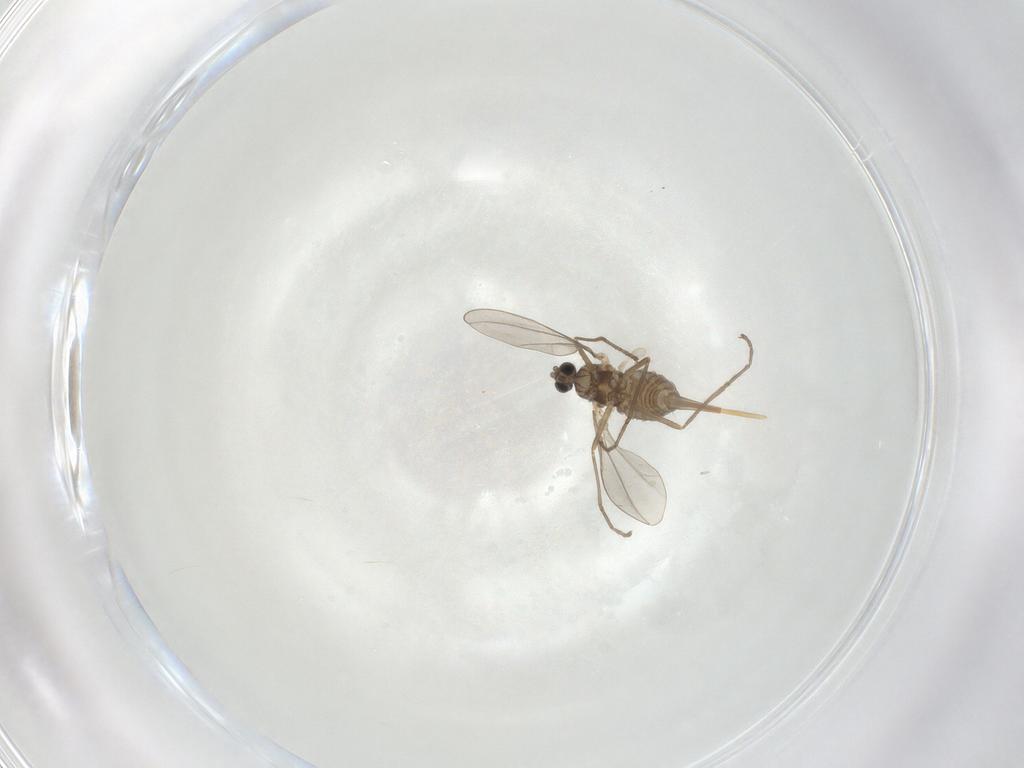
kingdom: Animalia
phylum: Arthropoda
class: Insecta
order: Diptera
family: Cecidomyiidae
